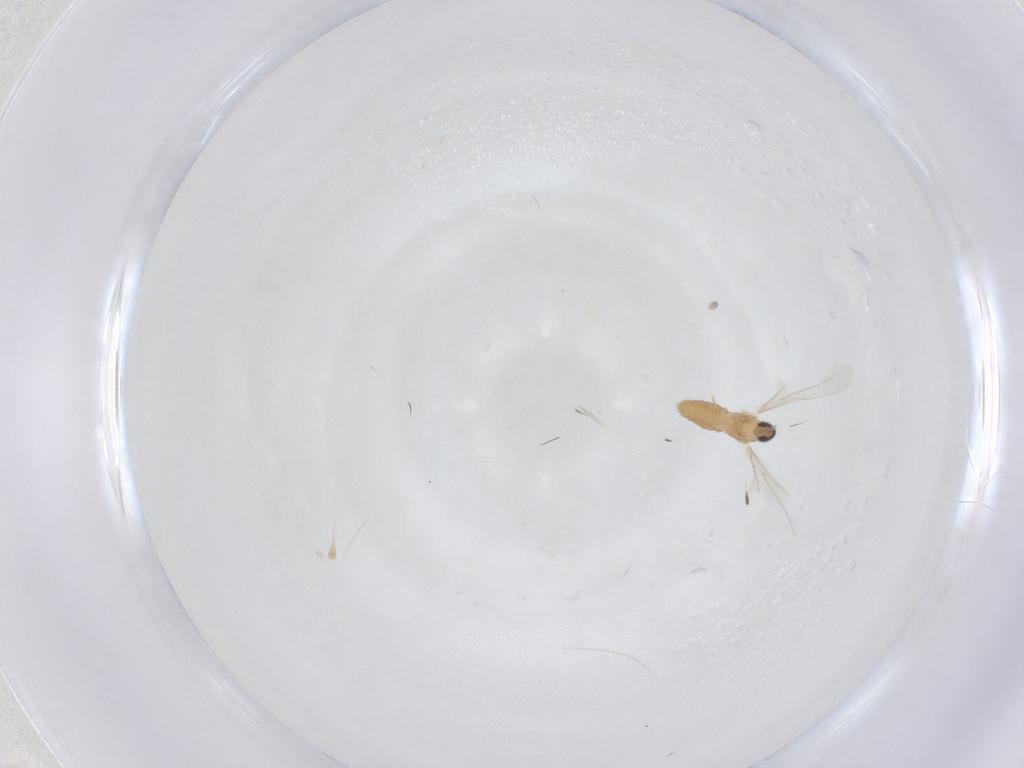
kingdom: Animalia
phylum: Arthropoda
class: Insecta
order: Diptera
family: Cecidomyiidae
